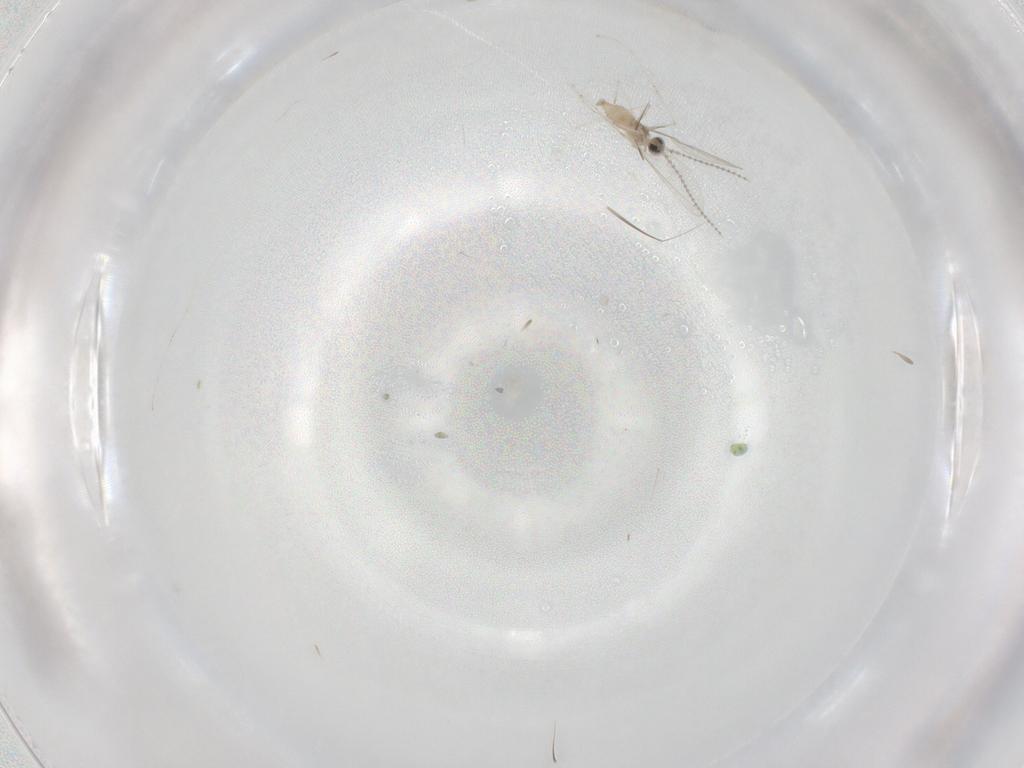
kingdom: Animalia
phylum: Arthropoda
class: Insecta
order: Diptera
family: Cecidomyiidae
